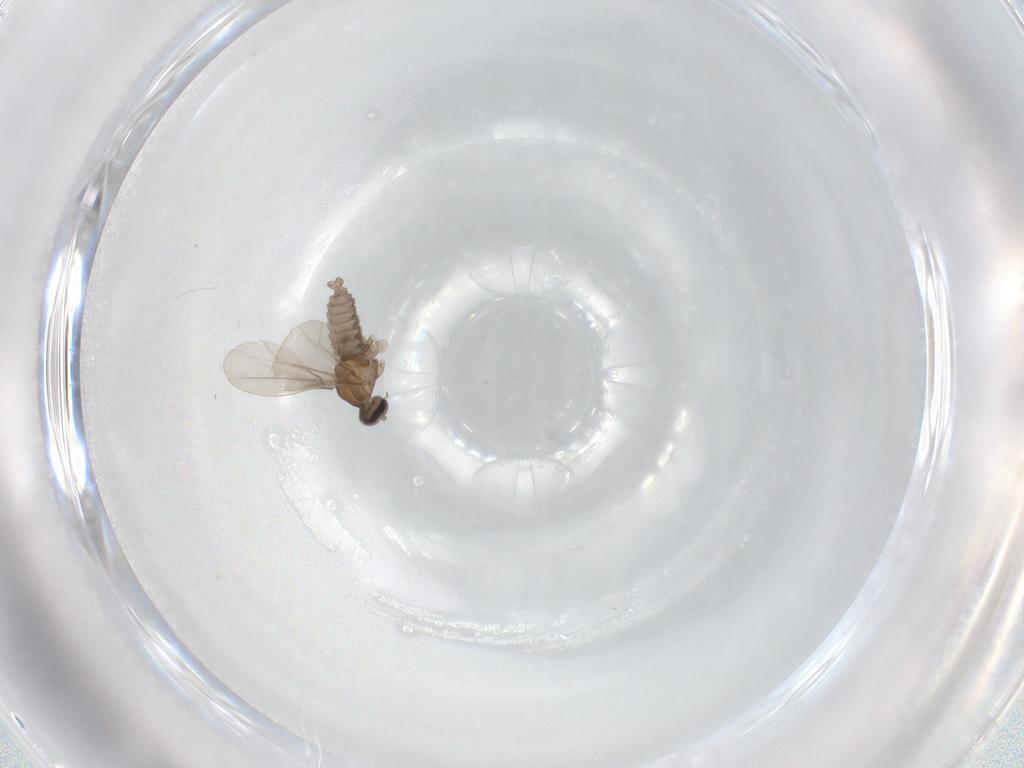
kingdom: Animalia
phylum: Arthropoda
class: Insecta
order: Diptera
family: Cecidomyiidae
